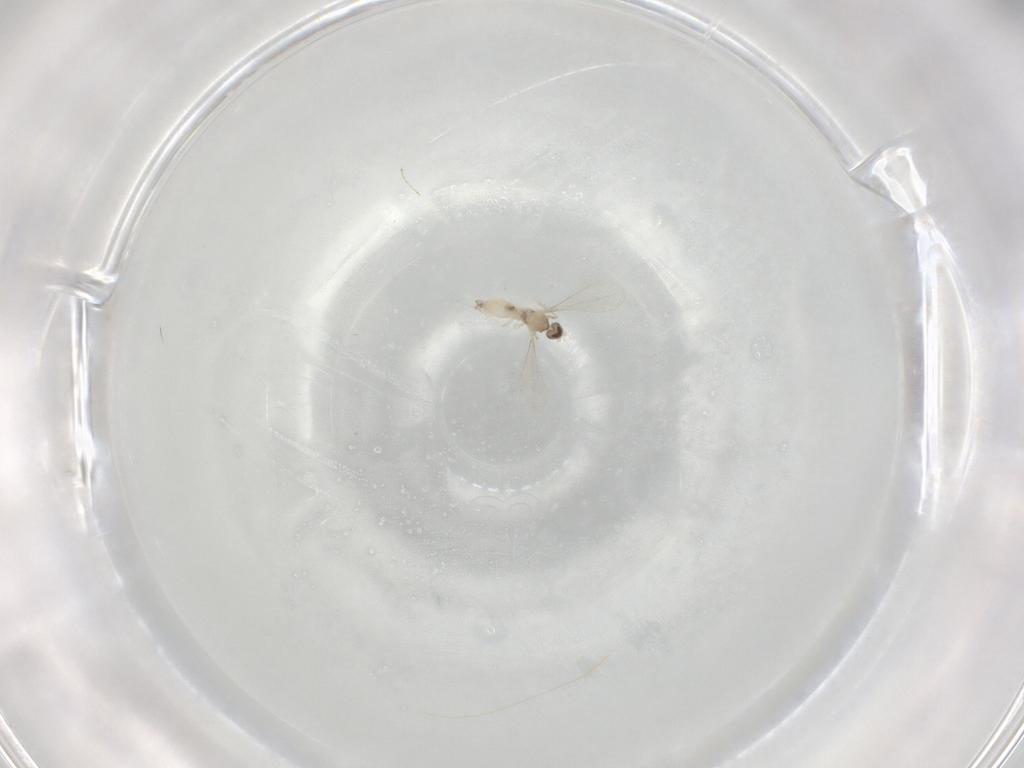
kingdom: Animalia
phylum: Arthropoda
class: Insecta
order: Diptera
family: Cecidomyiidae
